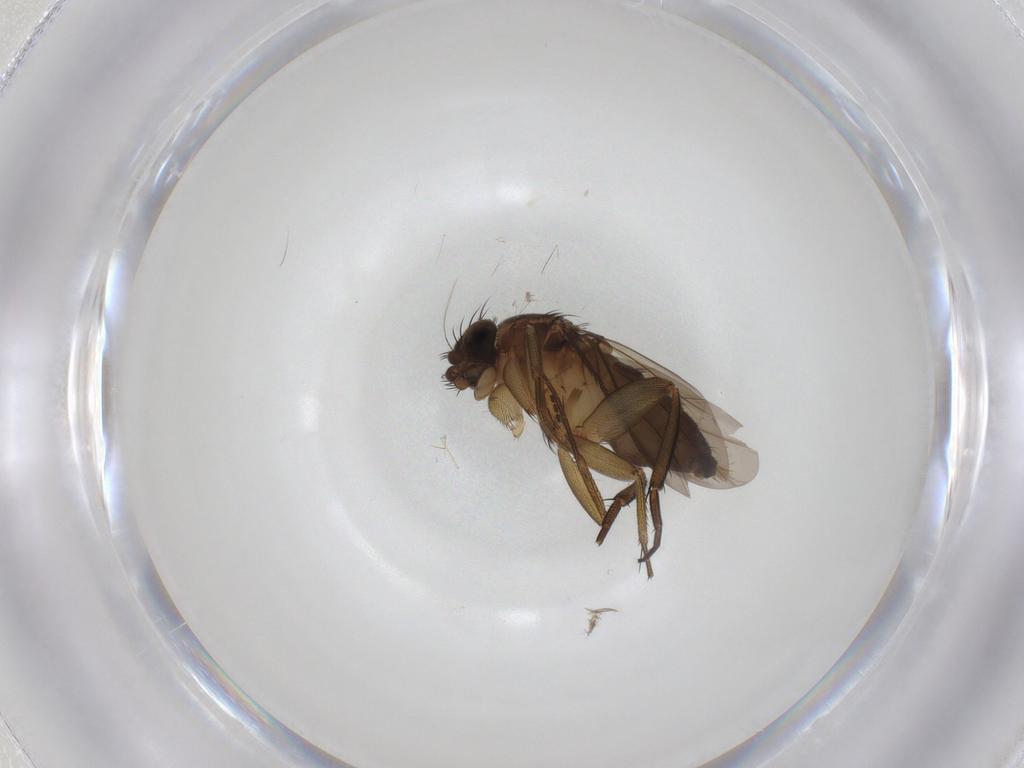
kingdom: Animalia
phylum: Arthropoda
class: Insecta
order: Diptera
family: Phoridae
